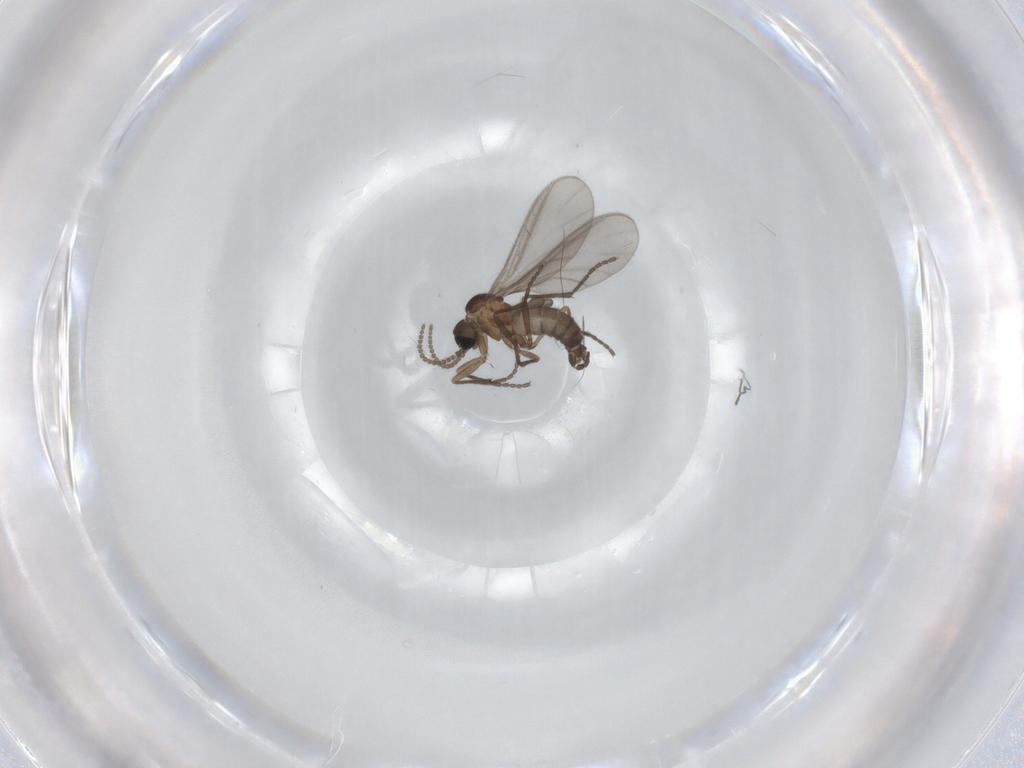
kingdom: Animalia
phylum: Arthropoda
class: Insecta
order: Diptera
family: Sciaridae
